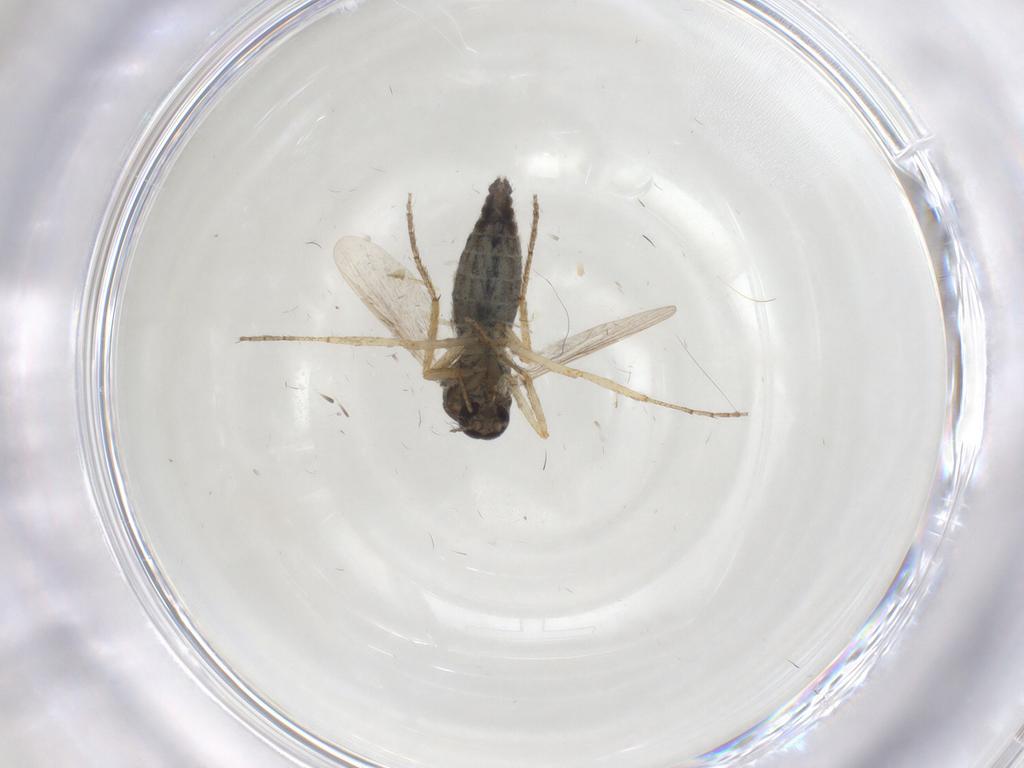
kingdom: Animalia
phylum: Arthropoda
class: Insecta
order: Diptera
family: Ceratopogonidae
